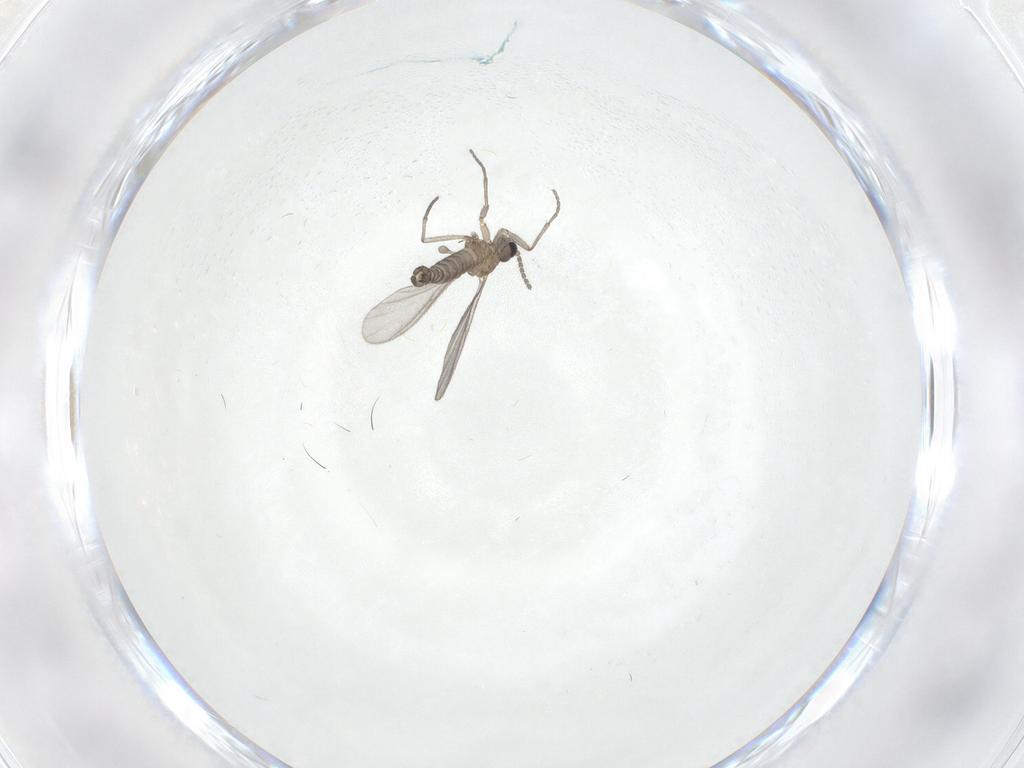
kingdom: Animalia
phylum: Arthropoda
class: Insecta
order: Diptera
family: Sciaridae
